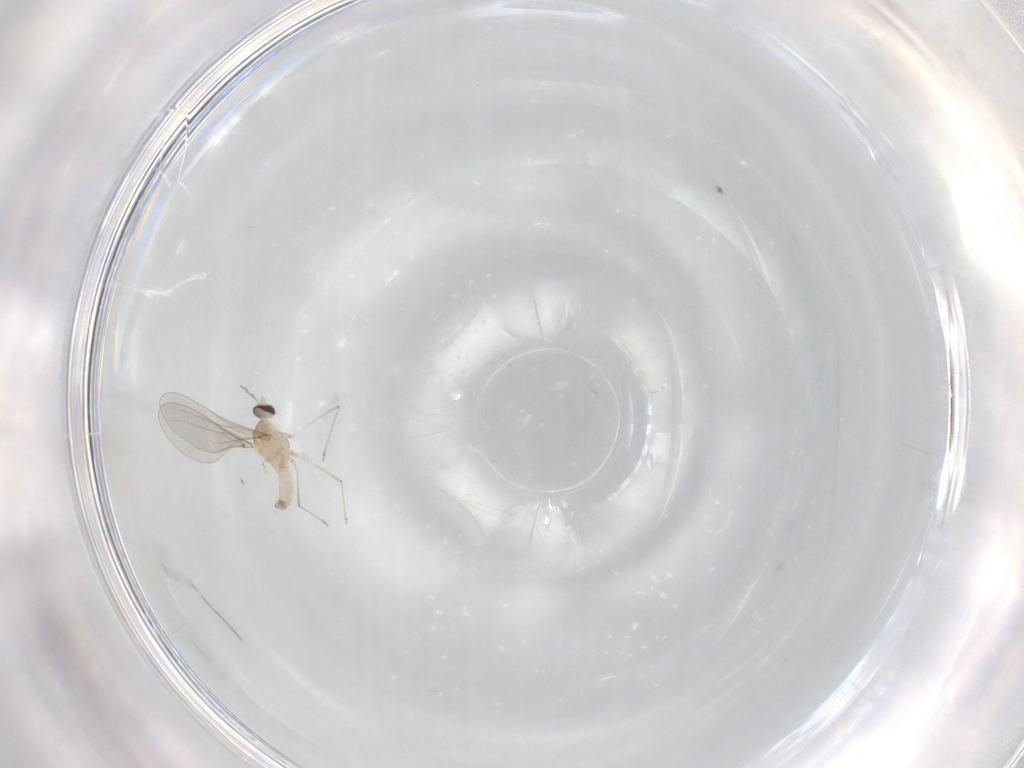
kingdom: Animalia
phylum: Arthropoda
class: Insecta
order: Diptera
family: Cecidomyiidae
